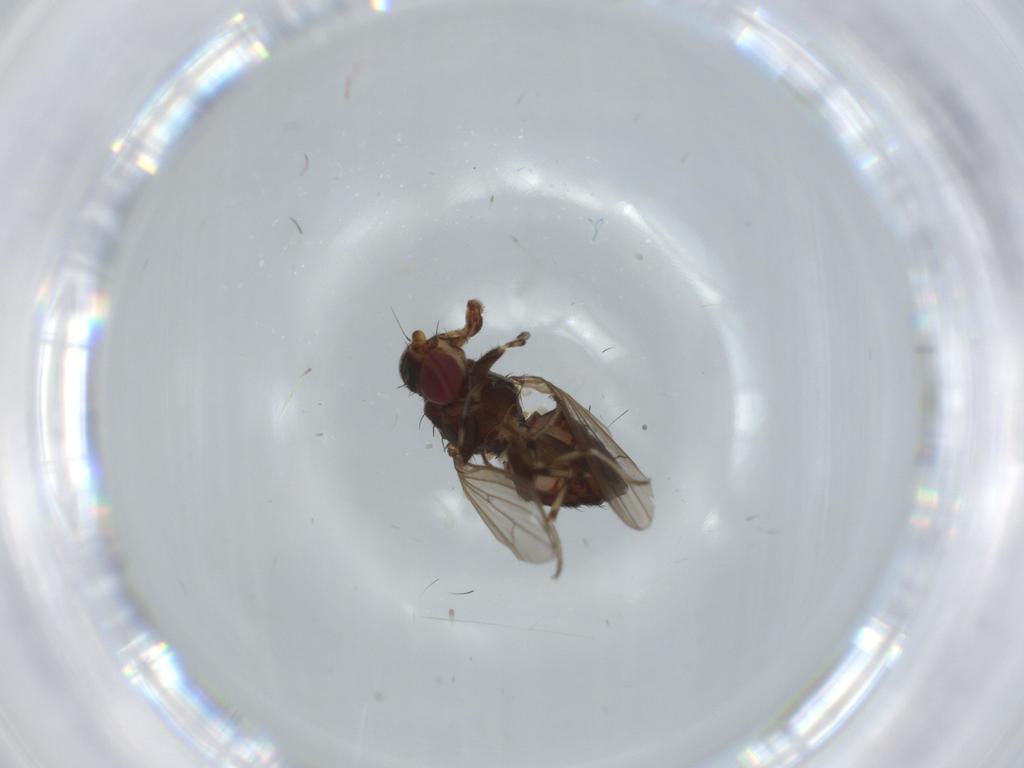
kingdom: Animalia
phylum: Arthropoda
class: Insecta
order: Diptera
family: Heleomyzidae
